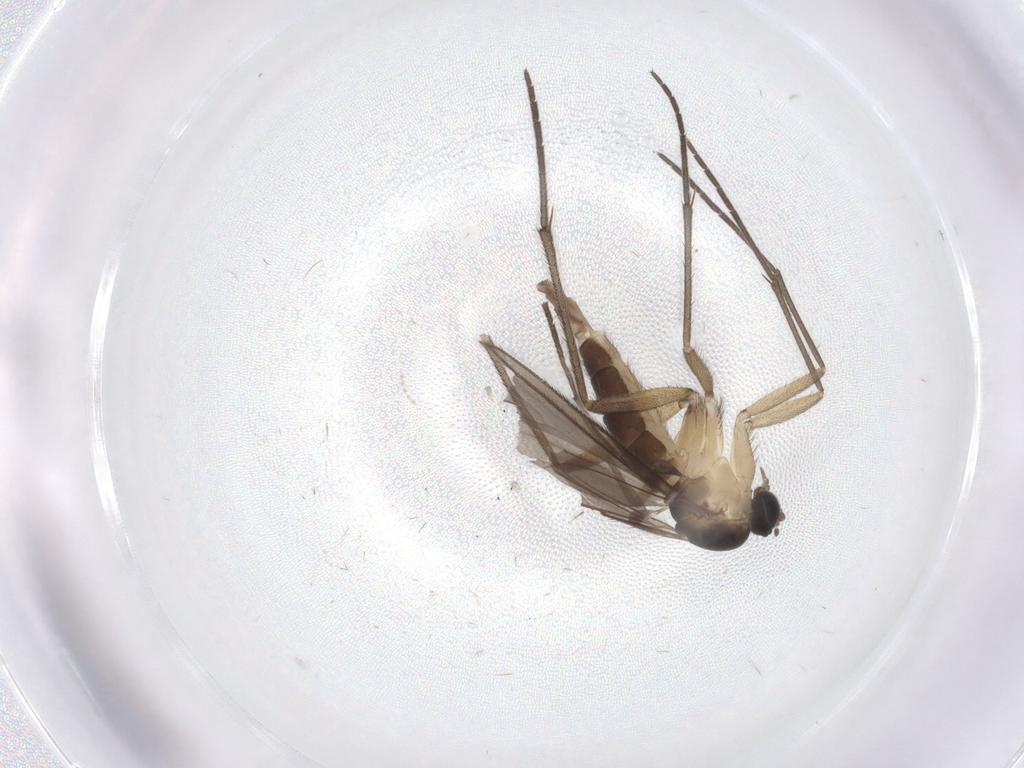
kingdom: Animalia
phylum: Arthropoda
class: Insecta
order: Diptera
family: Sciaridae
